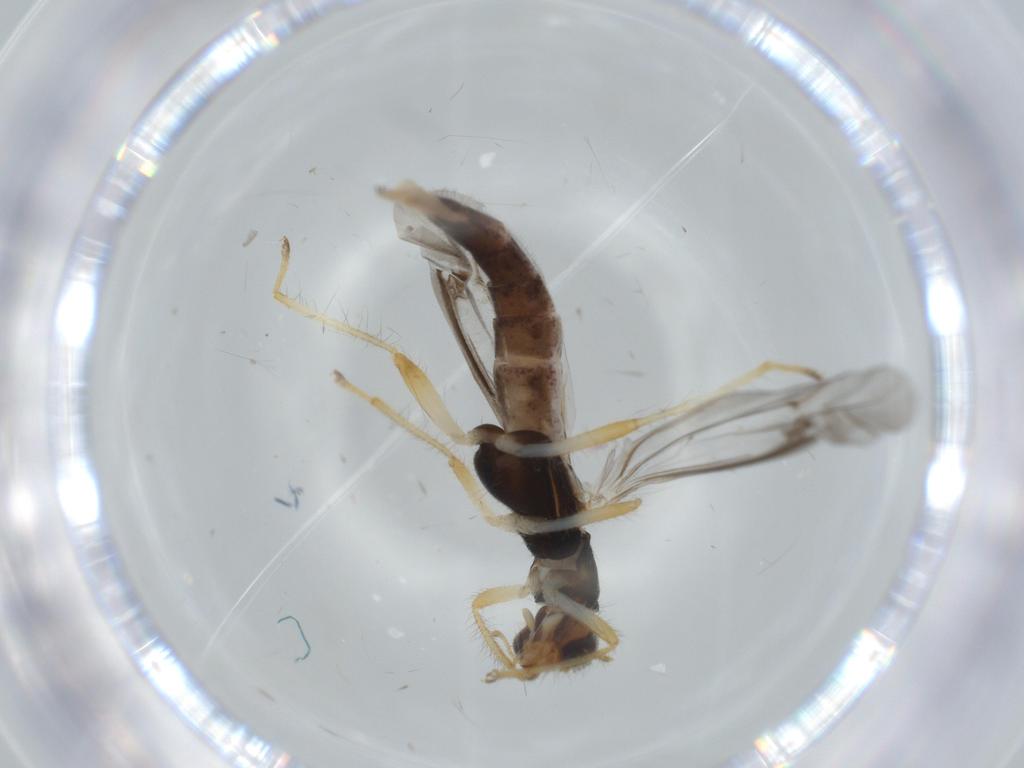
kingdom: Animalia
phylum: Arthropoda
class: Insecta
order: Coleoptera
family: Cleridae
